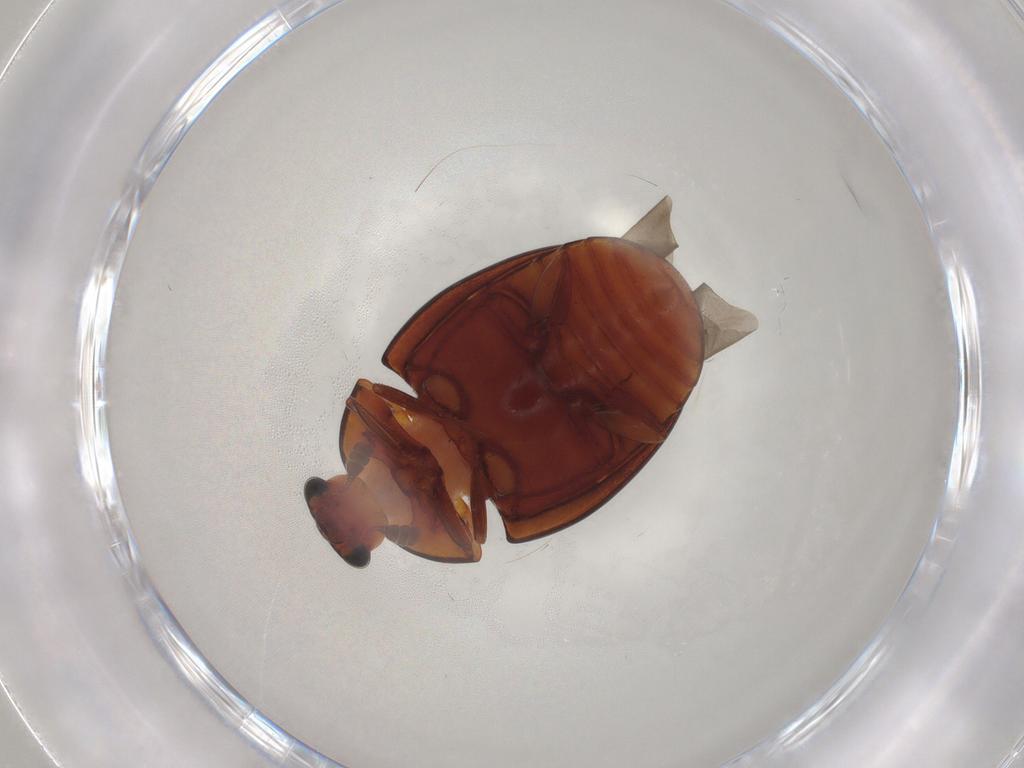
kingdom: Animalia
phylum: Arthropoda
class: Insecta
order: Coleoptera
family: Nitidulidae
